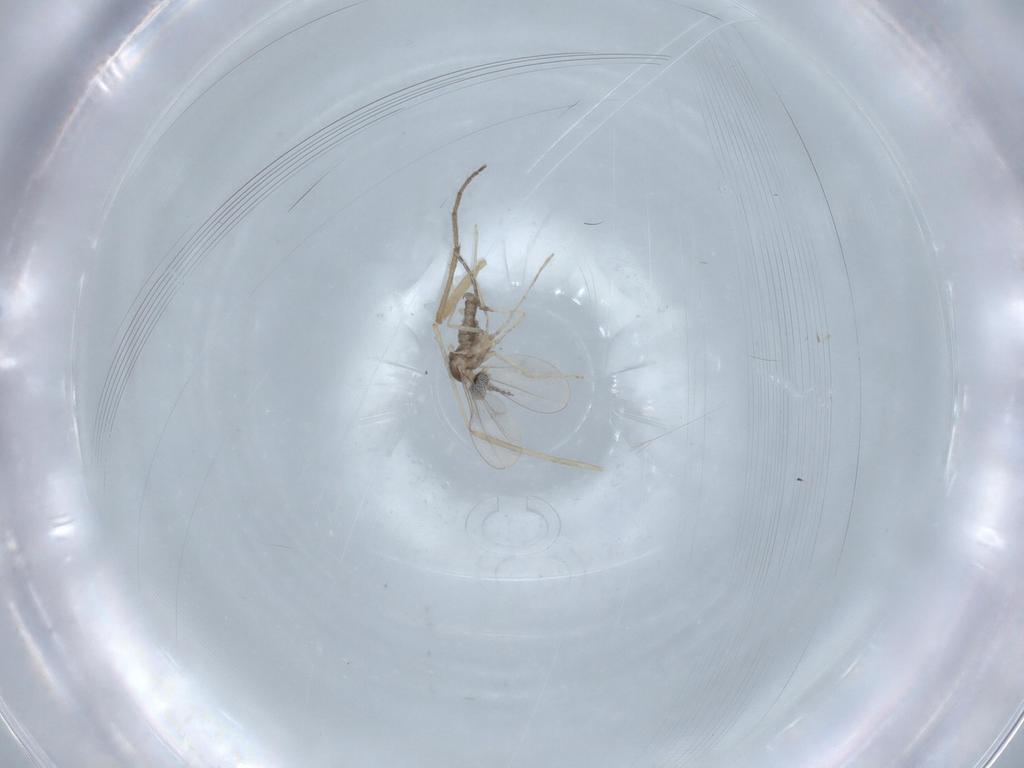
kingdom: Animalia
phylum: Arthropoda
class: Insecta
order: Diptera
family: Cecidomyiidae
